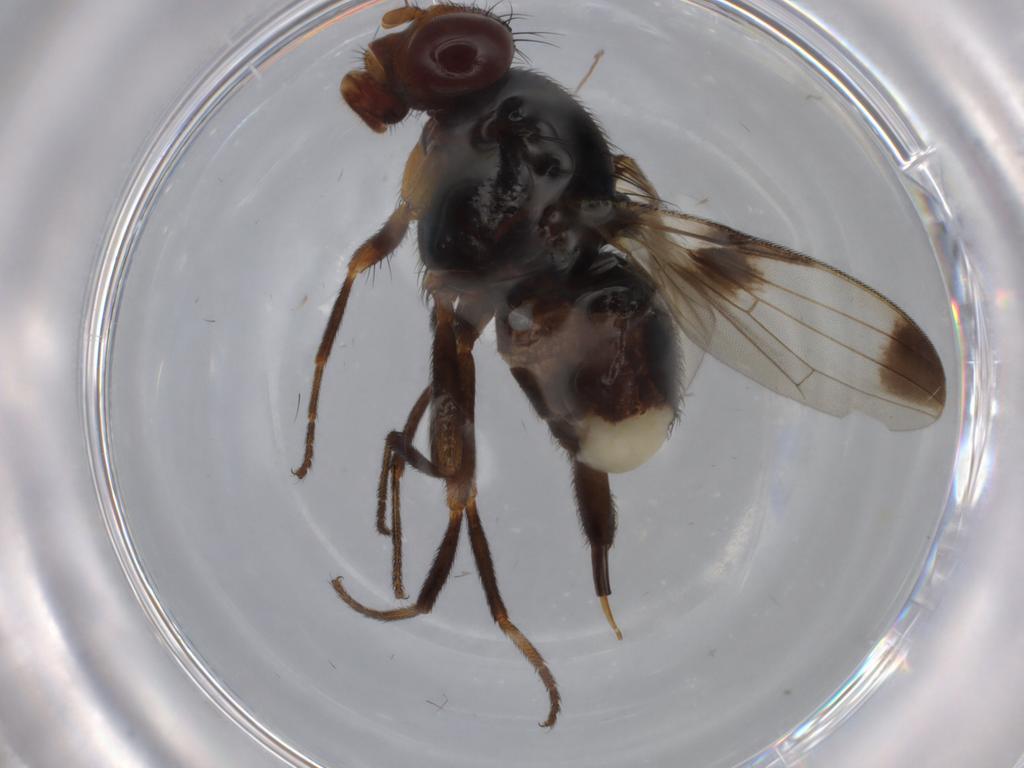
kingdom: Animalia
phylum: Arthropoda
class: Insecta
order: Diptera
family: Ulidiidae
